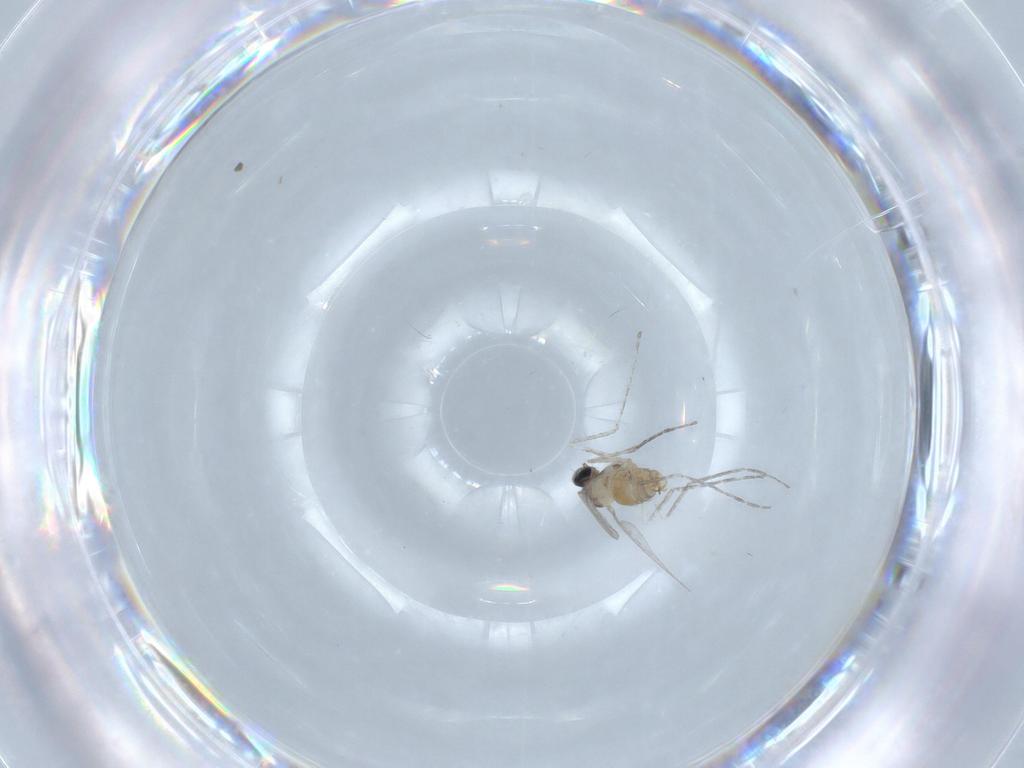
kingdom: Animalia
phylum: Arthropoda
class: Insecta
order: Diptera
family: Cecidomyiidae
